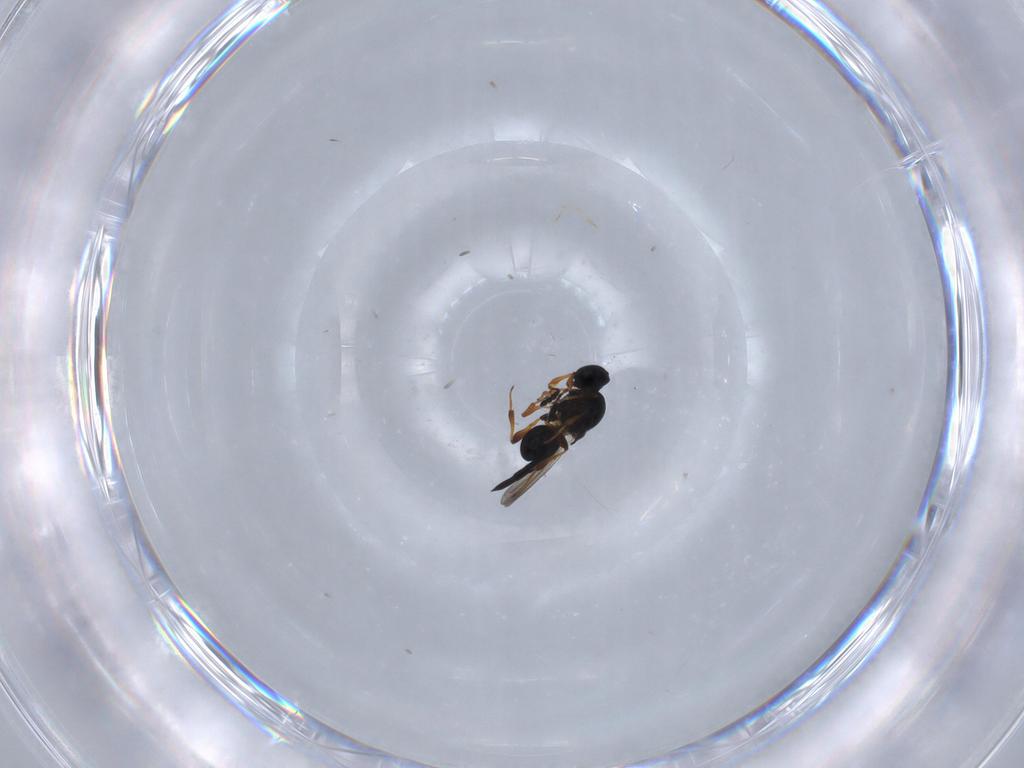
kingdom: Animalia
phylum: Arthropoda
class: Insecta
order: Hymenoptera
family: Platygastridae
